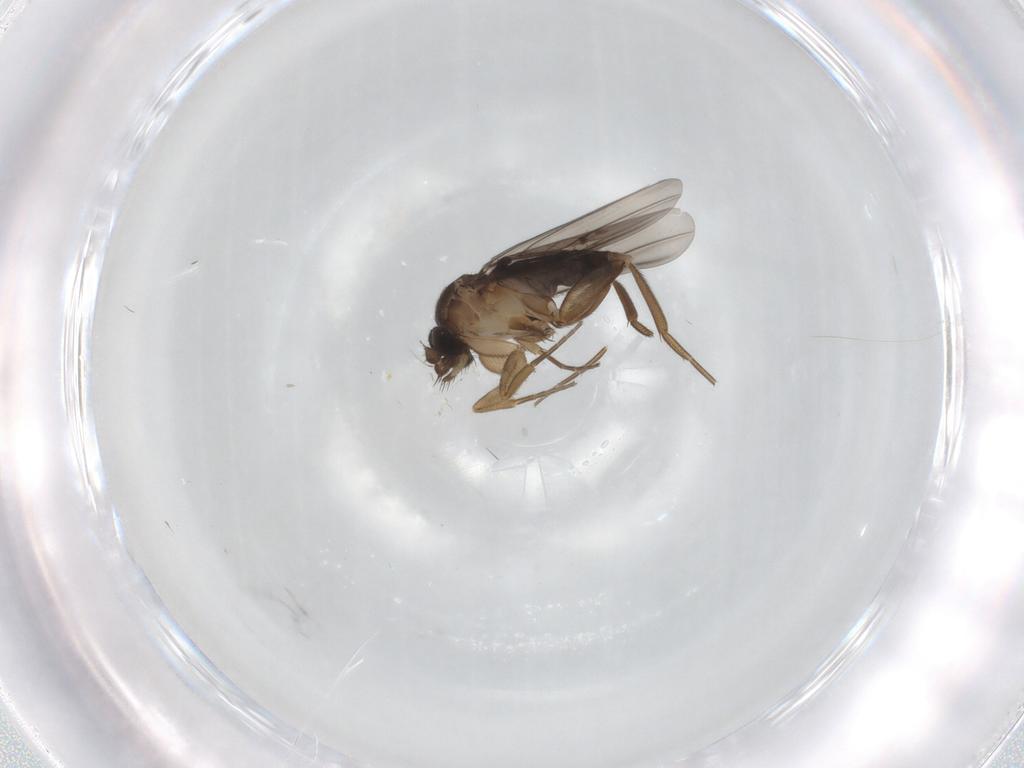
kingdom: Animalia
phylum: Arthropoda
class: Insecta
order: Diptera
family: Phoridae
